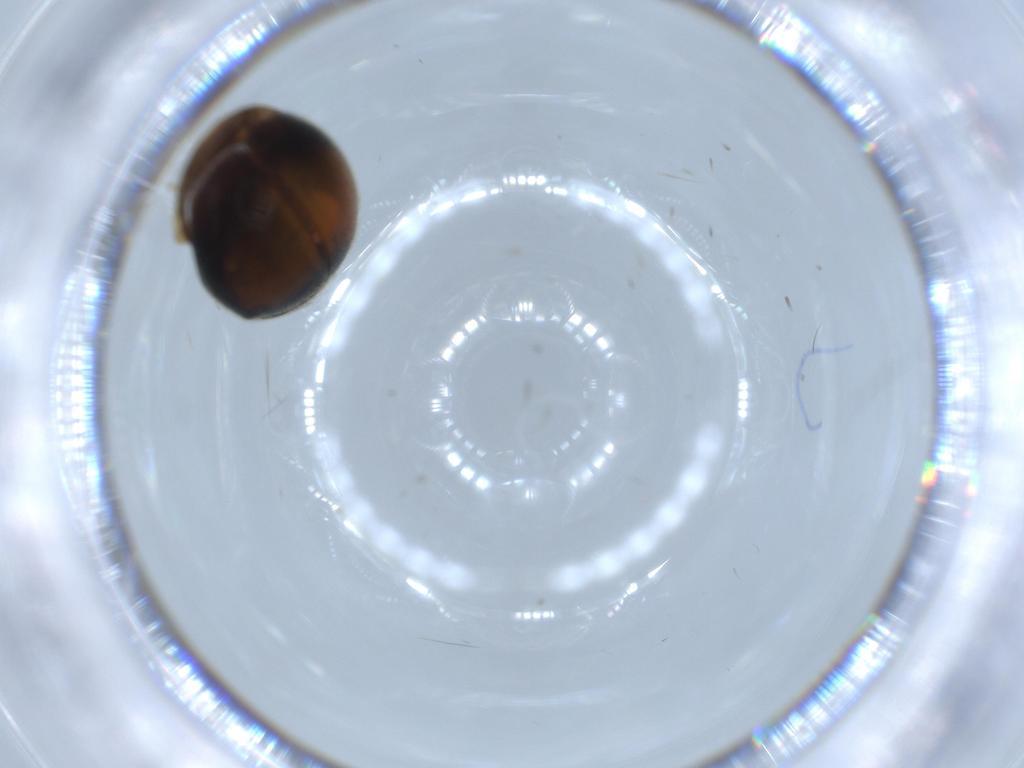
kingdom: Animalia
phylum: Arthropoda
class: Insecta
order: Coleoptera
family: Coccinellidae
